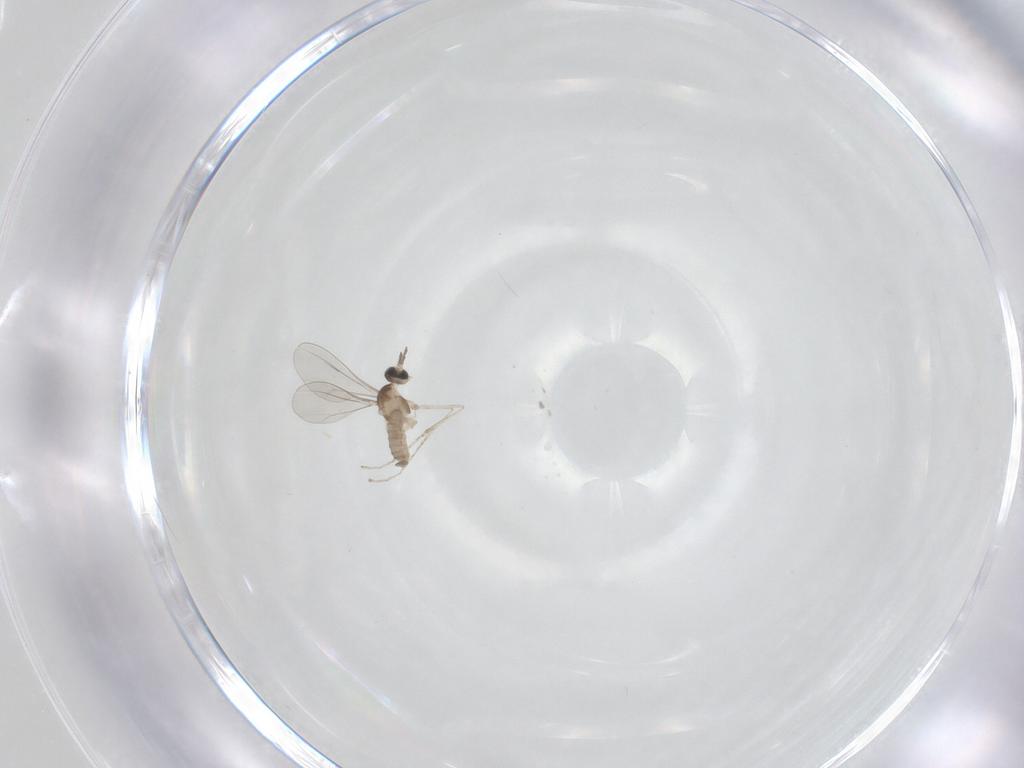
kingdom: Animalia
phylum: Arthropoda
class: Insecta
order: Diptera
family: Cecidomyiidae
